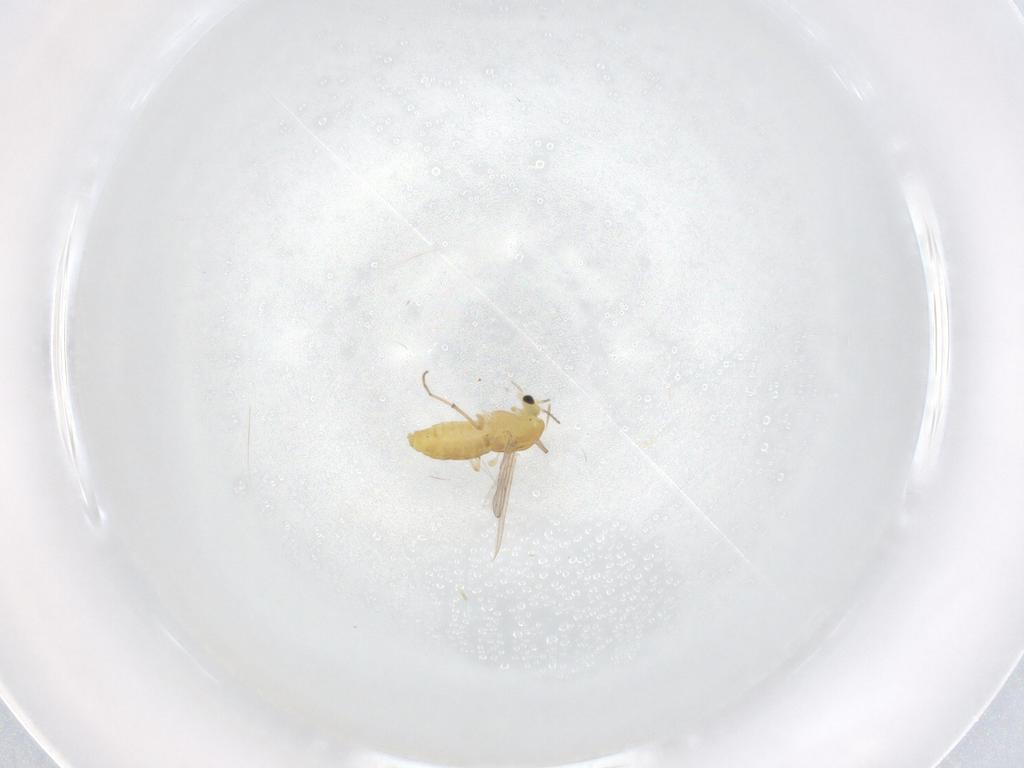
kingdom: Animalia
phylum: Arthropoda
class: Insecta
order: Diptera
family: Chironomidae
